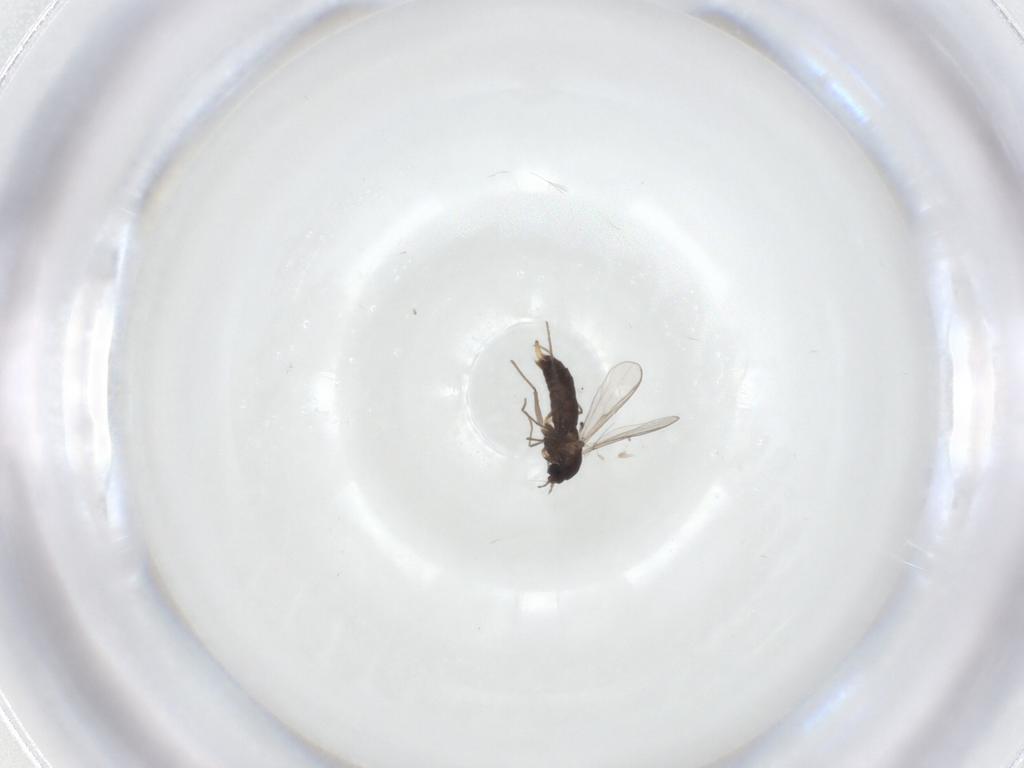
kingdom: Animalia
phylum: Arthropoda
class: Insecta
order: Diptera
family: Chironomidae
